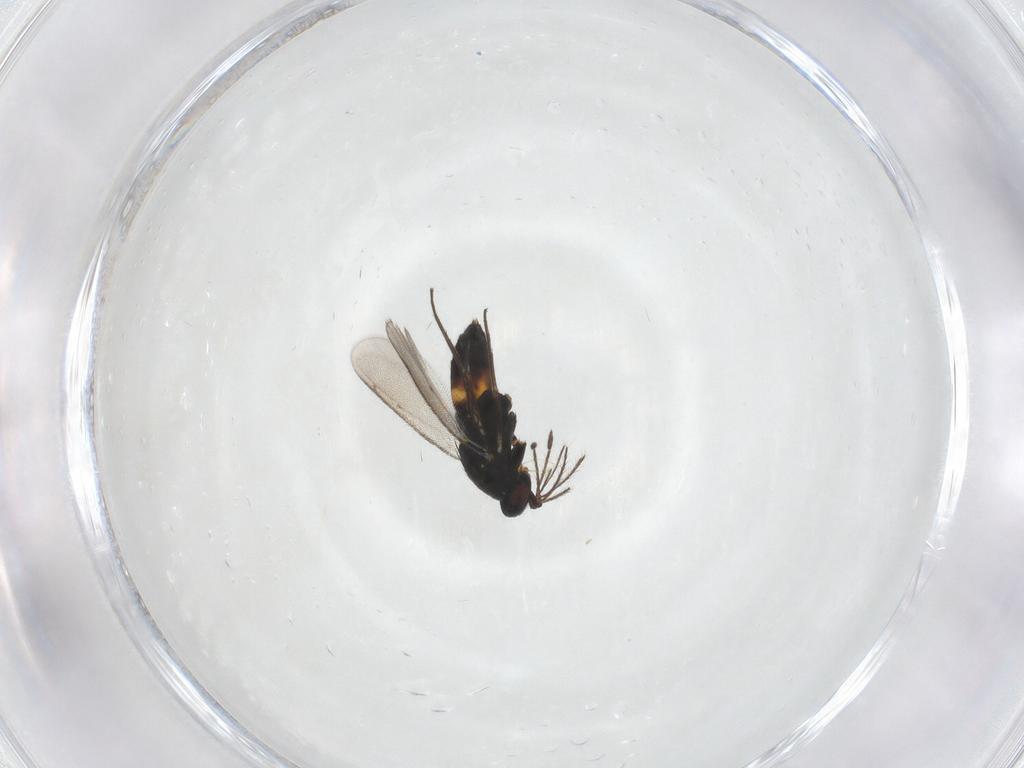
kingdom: Animalia
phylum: Arthropoda
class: Insecta
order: Hymenoptera
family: Eulophidae
